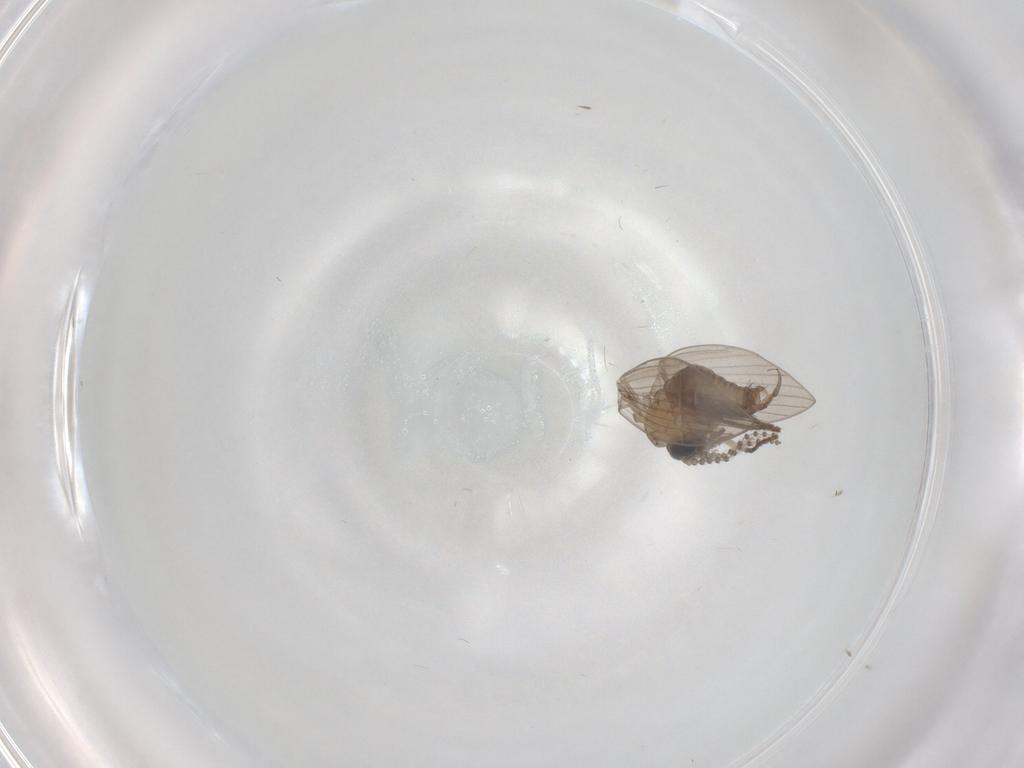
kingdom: Animalia
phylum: Arthropoda
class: Insecta
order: Diptera
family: Psychodidae
